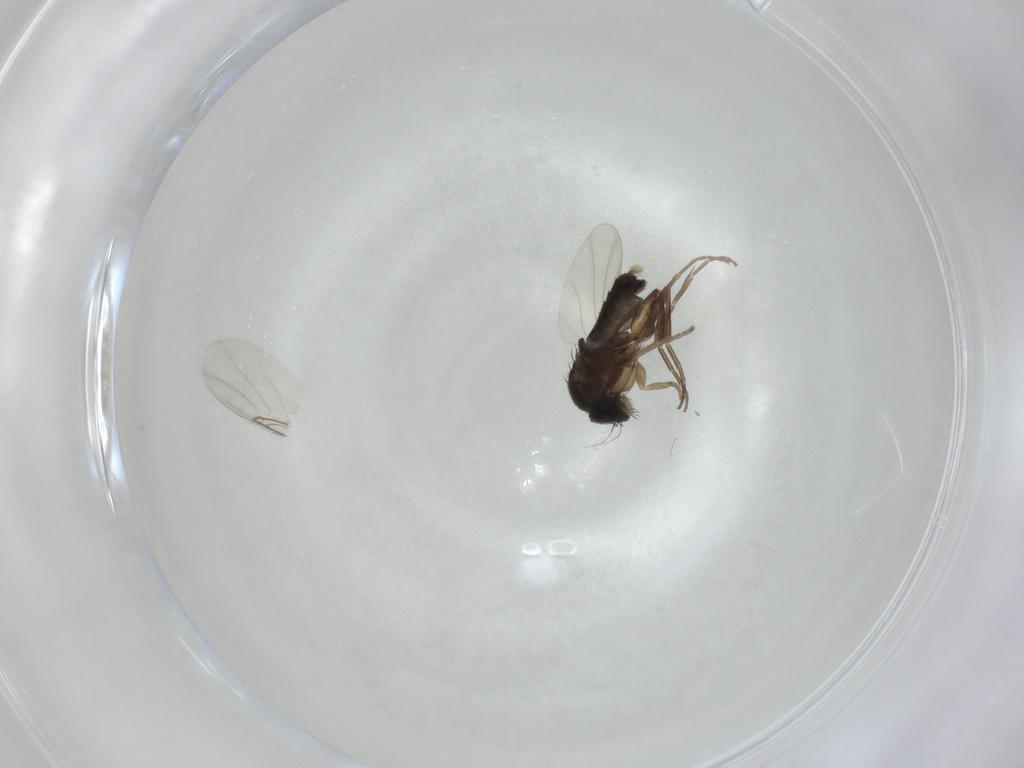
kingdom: Animalia
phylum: Arthropoda
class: Insecta
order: Diptera
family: Phoridae
